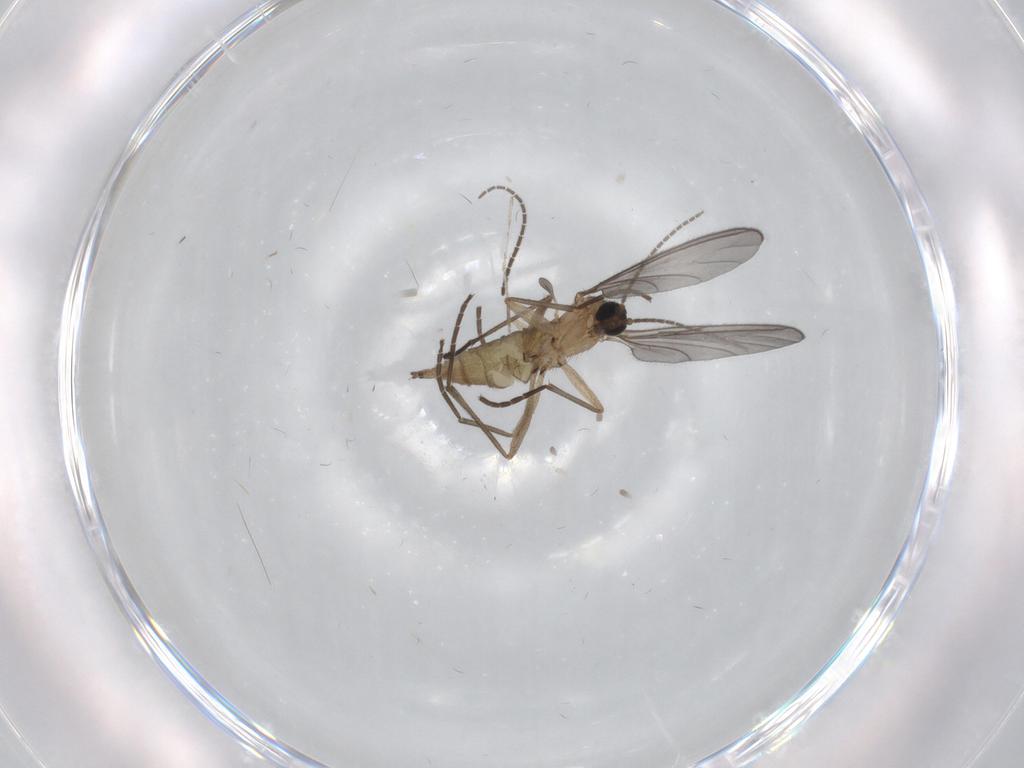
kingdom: Animalia
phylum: Arthropoda
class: Insecta
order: Diptera
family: Sciaridae
